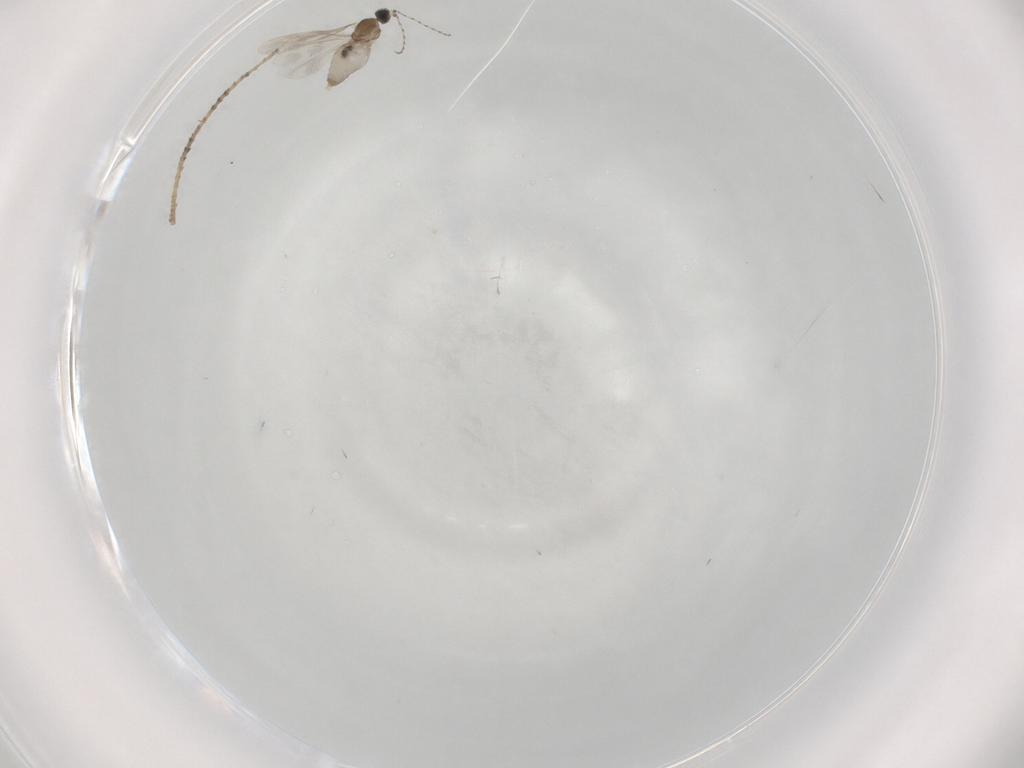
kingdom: Animalia
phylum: Arthropoda
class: Insecta
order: Diptera
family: Cecidomyiidae
